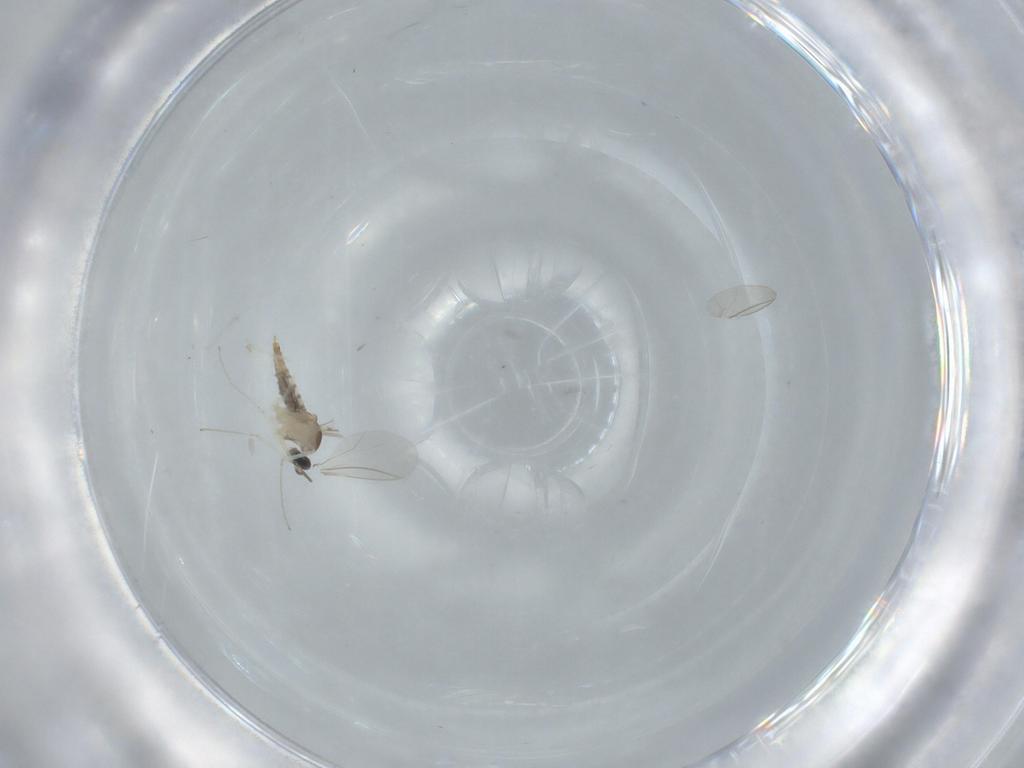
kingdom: Animalia
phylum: Arthropoda
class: Insecta
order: Diptera
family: Cecidomyiidae
